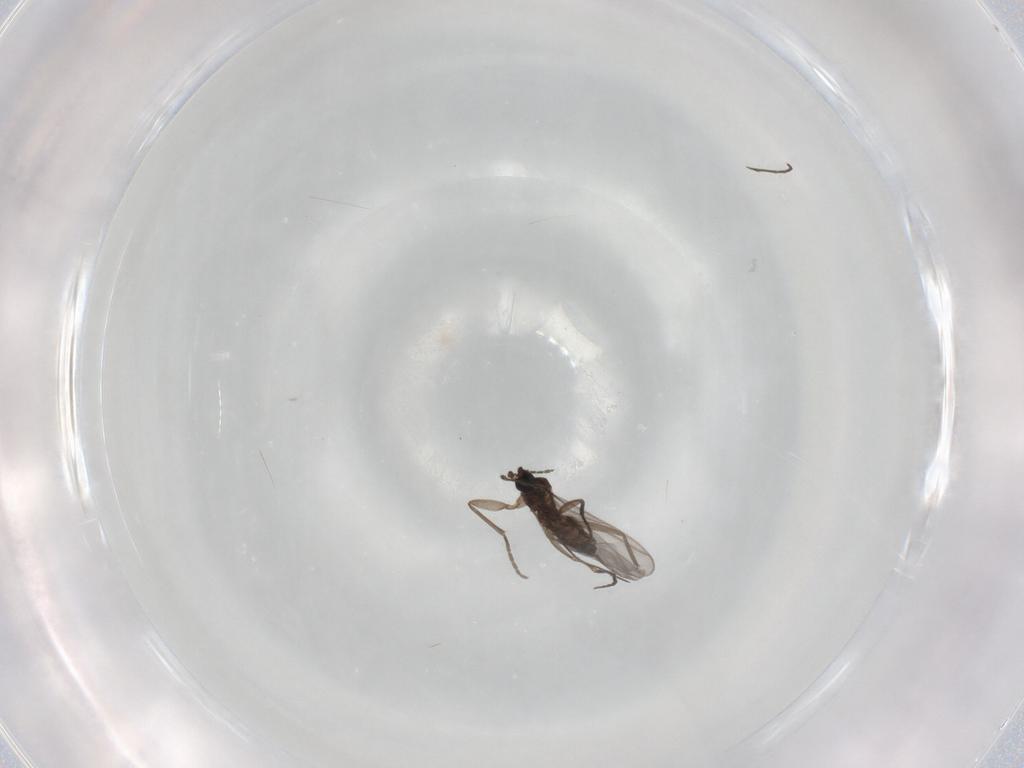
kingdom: Animalia
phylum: Arthropoda
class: Insecta
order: Diptera
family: Sciaridae
